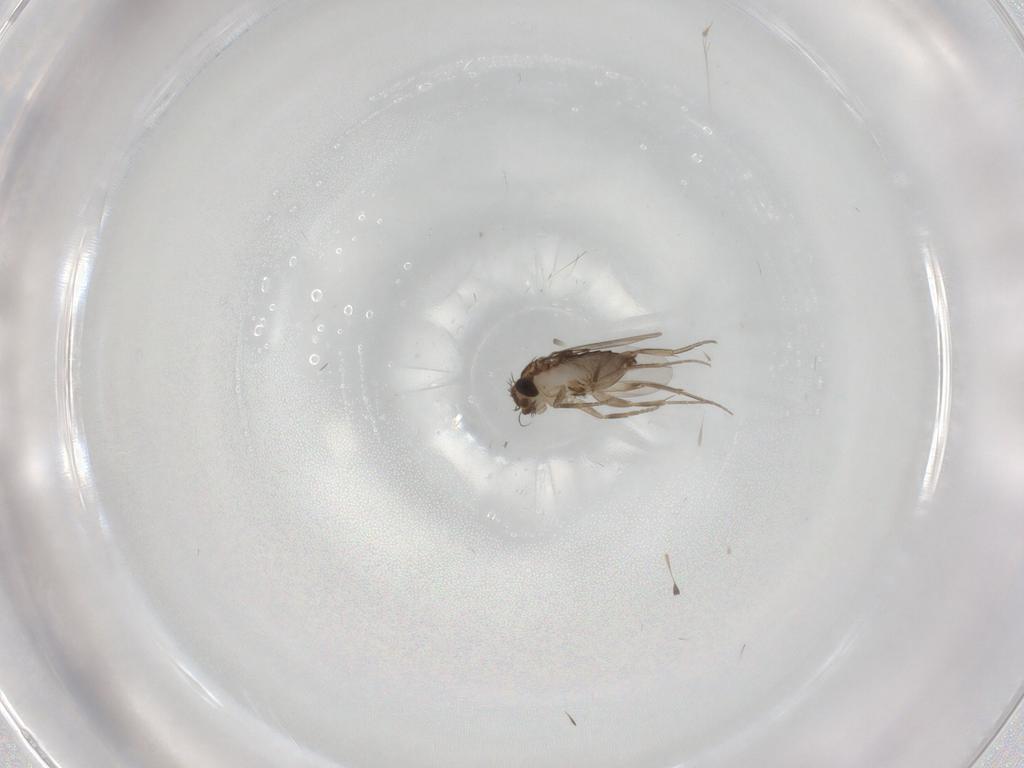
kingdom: Animalia
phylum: Arthropoda
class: Insecta
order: Diptera
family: Phoridae
